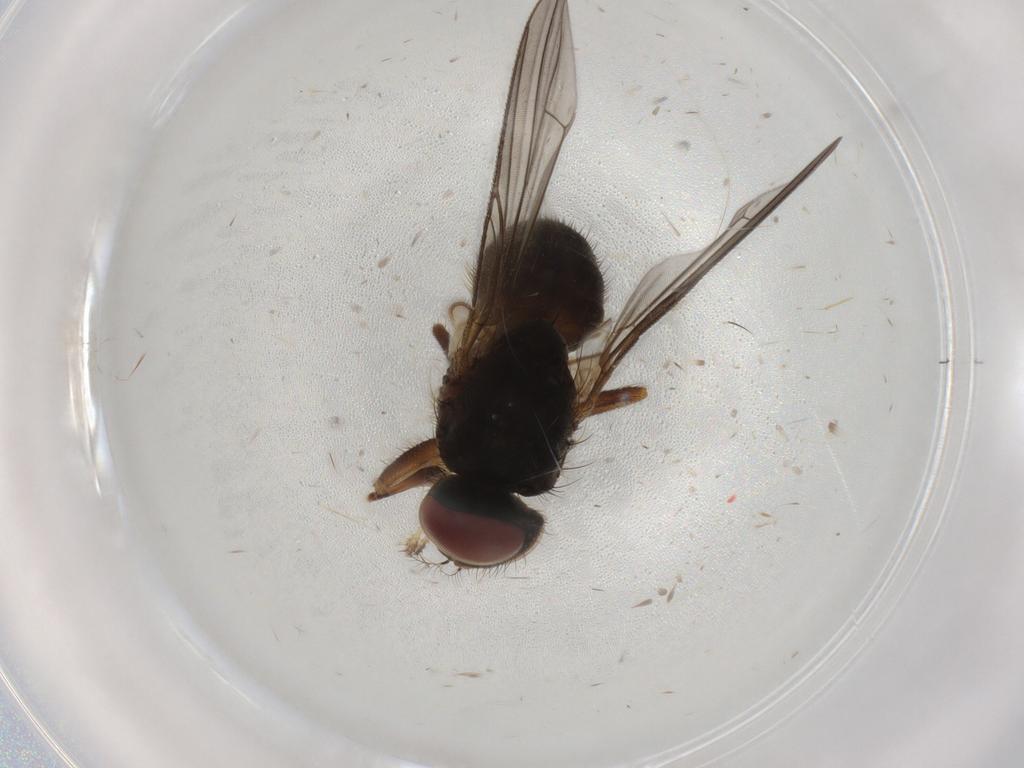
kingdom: Animalia
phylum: Arthropoda
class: Insecta
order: Diptera
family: Muscidae
